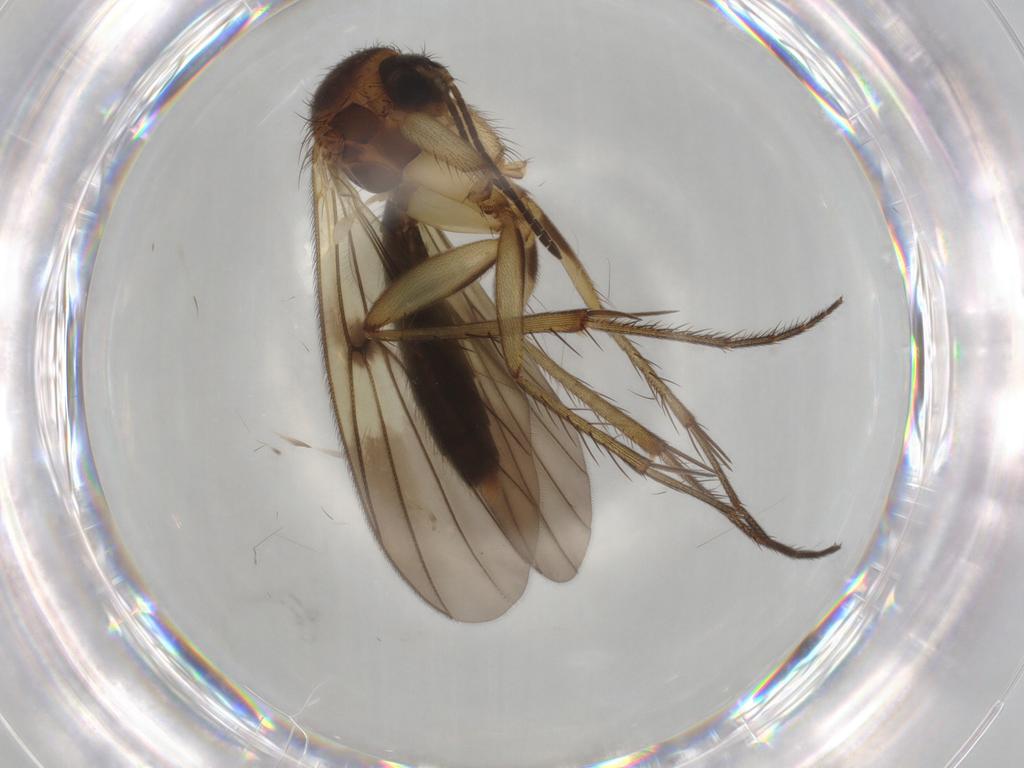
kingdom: Animalia
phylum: Arthropoda
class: Insecta
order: Diptera
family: Mycetophilidae
